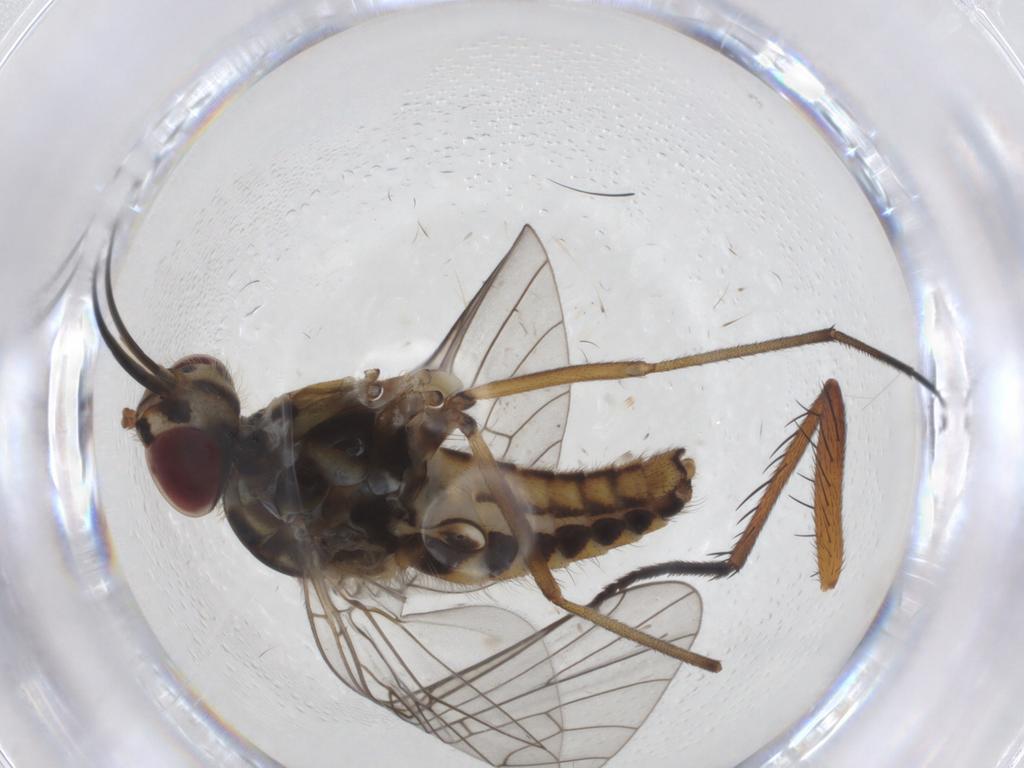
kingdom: Animalia
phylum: Arthropoda
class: Insecta
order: Diptera
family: Bombyliidae
